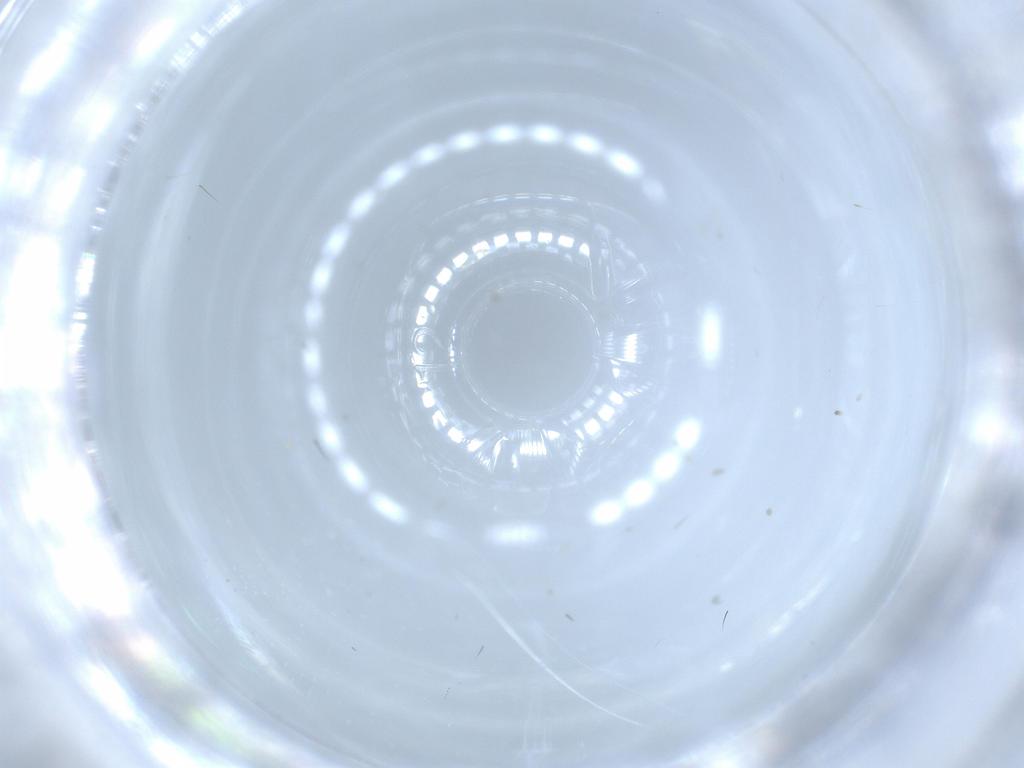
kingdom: Animalia
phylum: Arthropoda
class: Insecta
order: Diptera
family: Chironomidae
